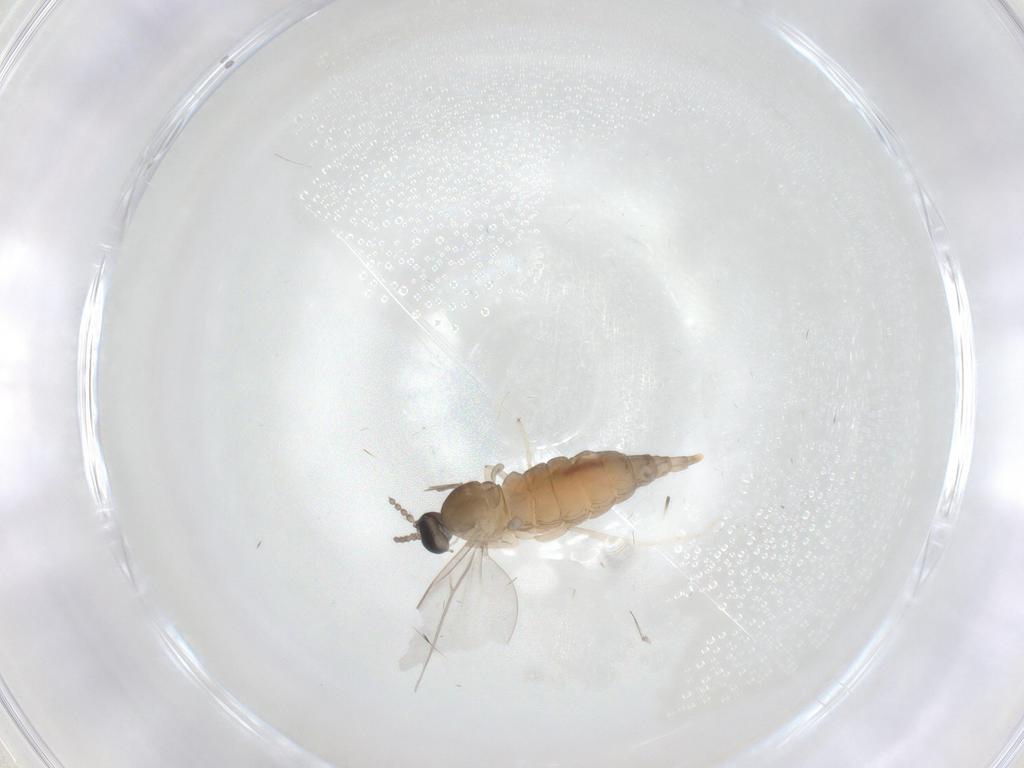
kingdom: Animalia
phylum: Arthropoda
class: Insecta
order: Diptera
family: Cecidomyiidae
